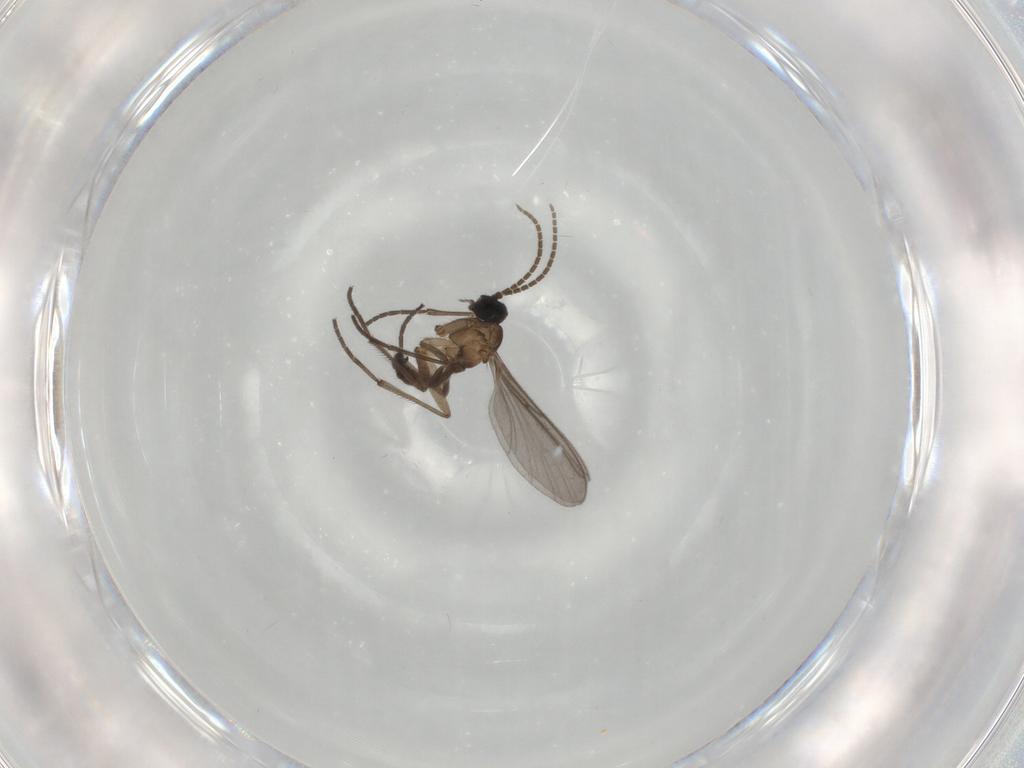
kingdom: Animalia
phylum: Arthropoda
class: Insecta
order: Diptera
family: Sciaridae
